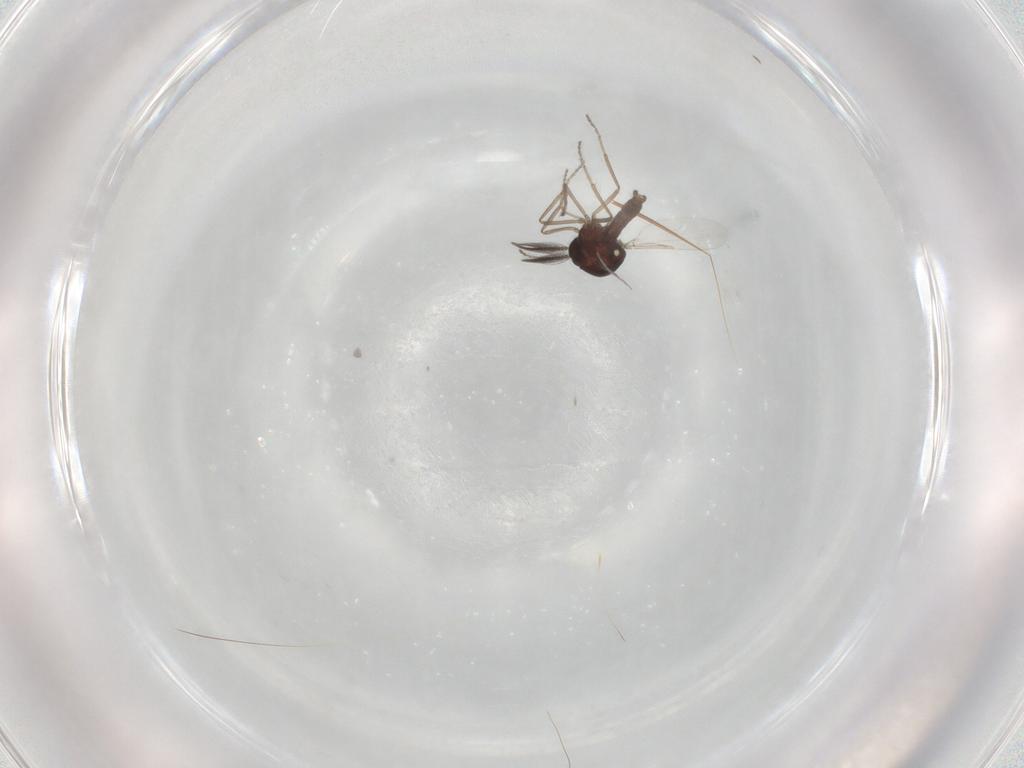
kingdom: Animalia
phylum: Arthropoda
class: Insecta
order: Diptera
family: Ceratopogonidae
